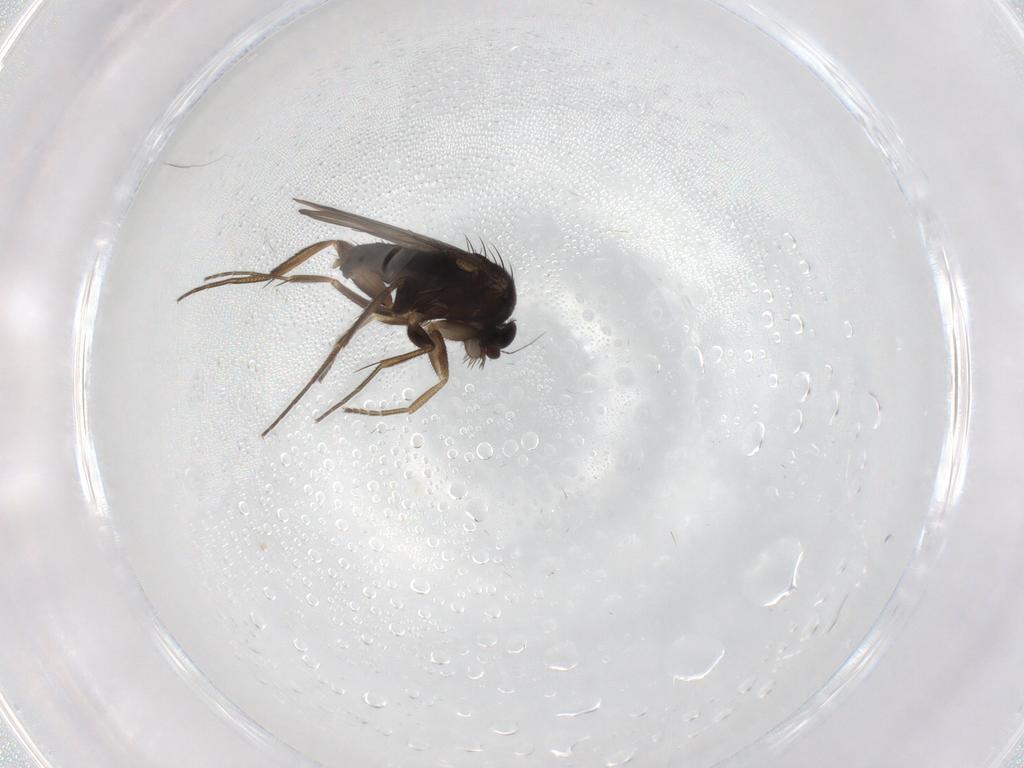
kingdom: Animalia
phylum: Arthropoda
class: Insecta
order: Diptera
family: Phoridae
